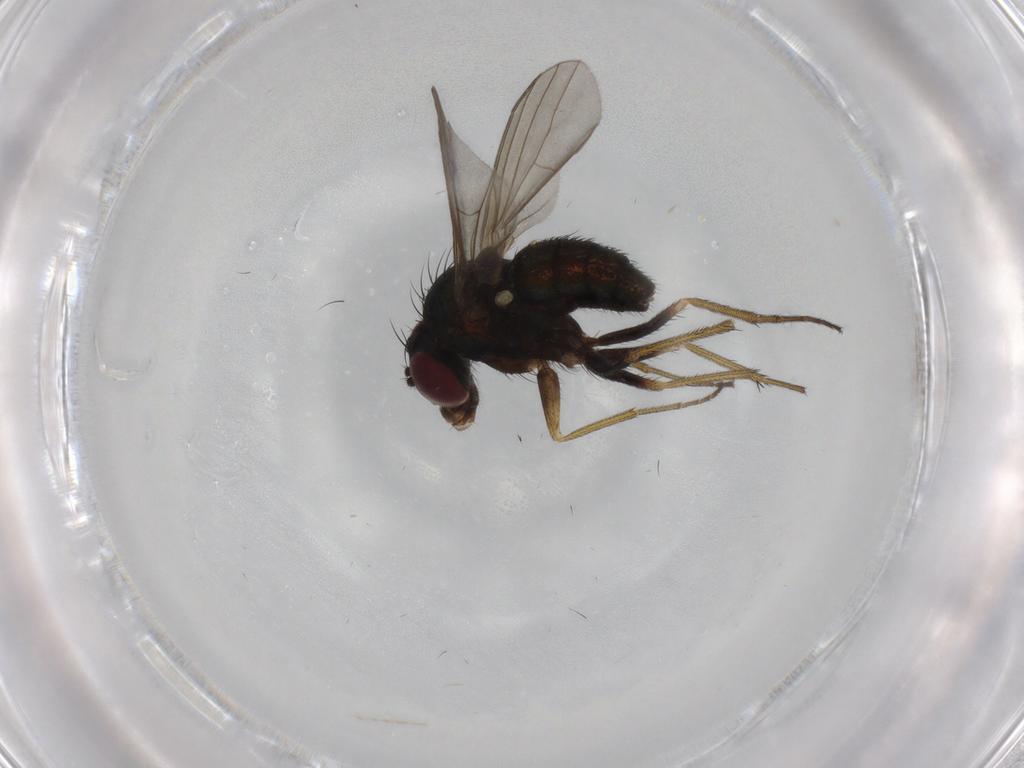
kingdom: Animalia
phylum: Arthropoda
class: Insecta
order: Diptera
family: Dolichopodidae
